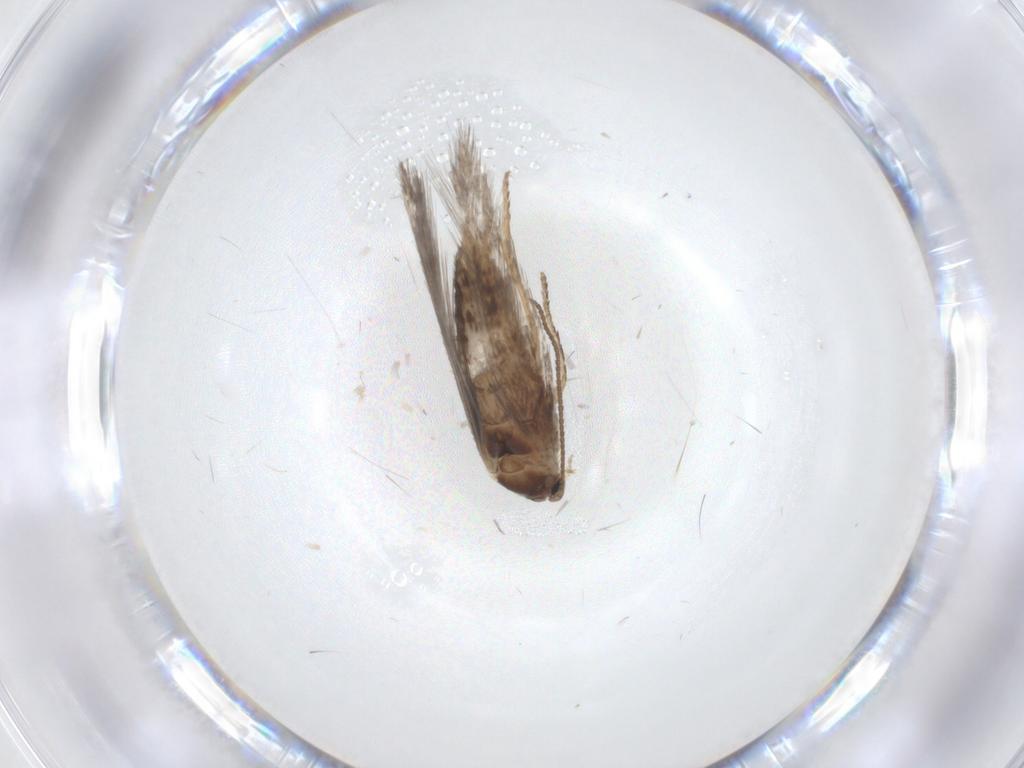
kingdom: Animalia
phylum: Arthropoda
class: Insecta
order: Lepidoptera
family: Nepticulidae
